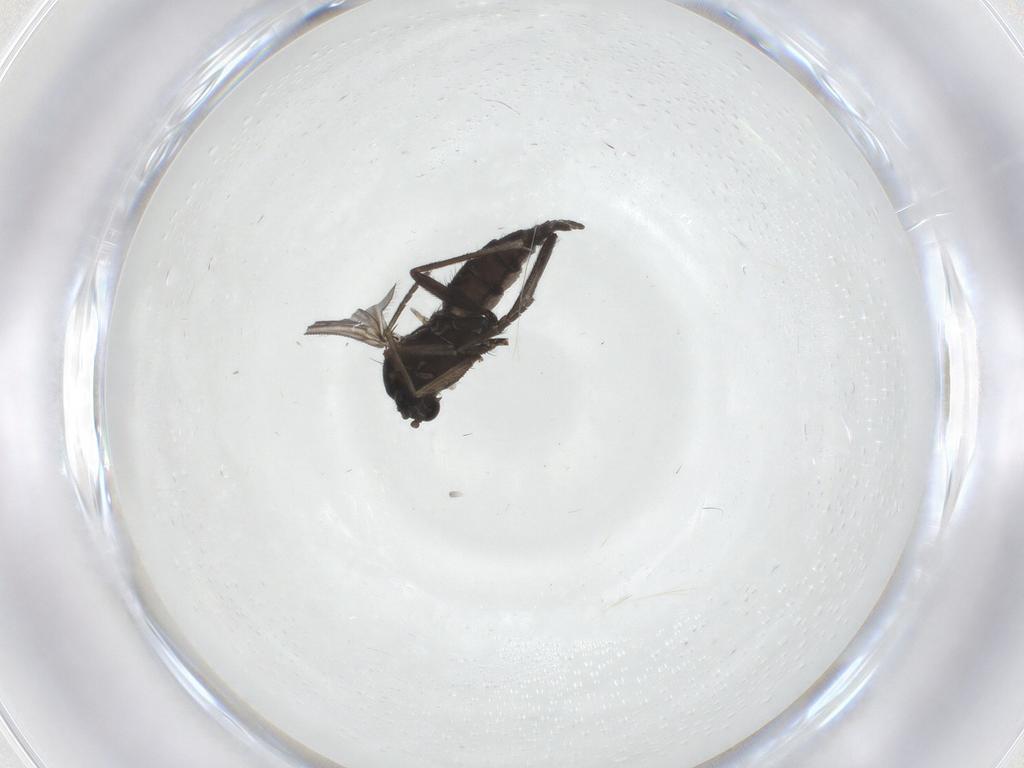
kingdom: Animalia
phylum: Arthropoda
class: Insecta
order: Diptera
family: Sciaridae
